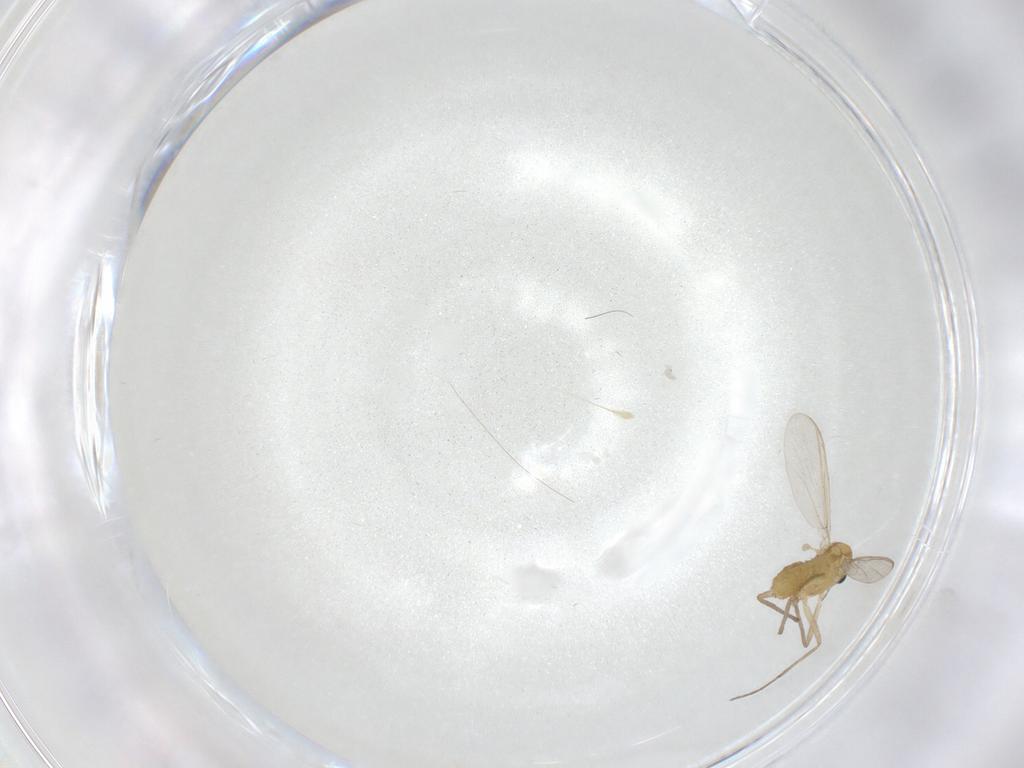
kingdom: Animalia
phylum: Arthropoda
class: Insecta
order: Diptera
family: Chironomidae
